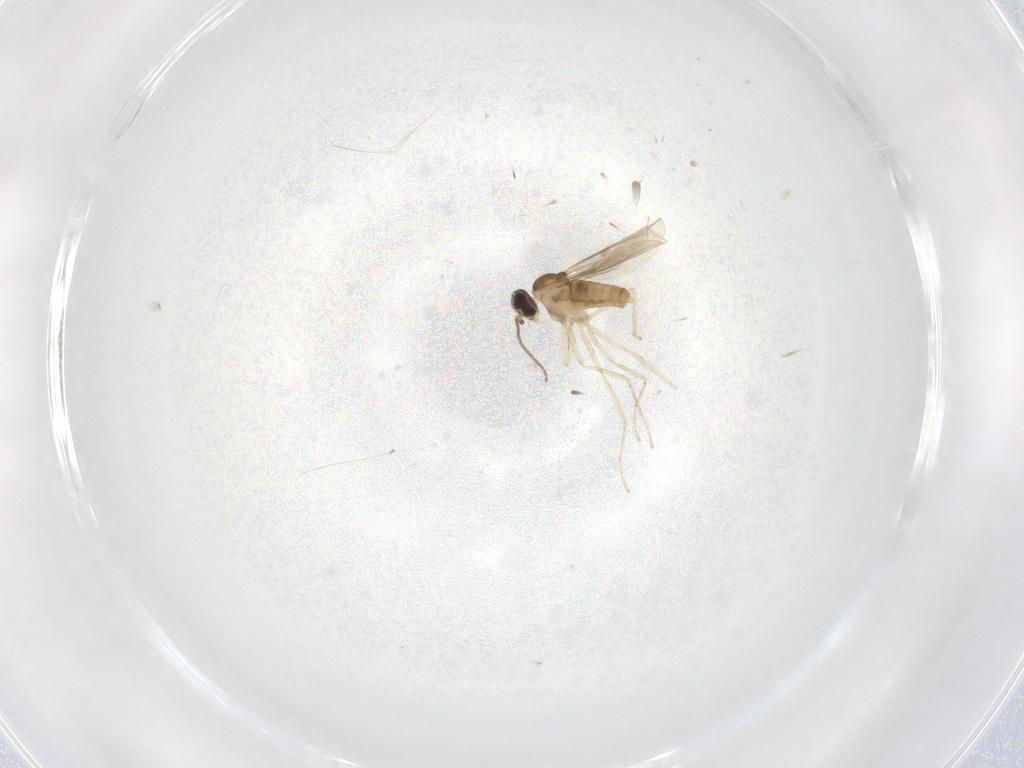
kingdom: Animalia
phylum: Arthropoda
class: Insecta
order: Diptera
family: Cecidomyiidae
